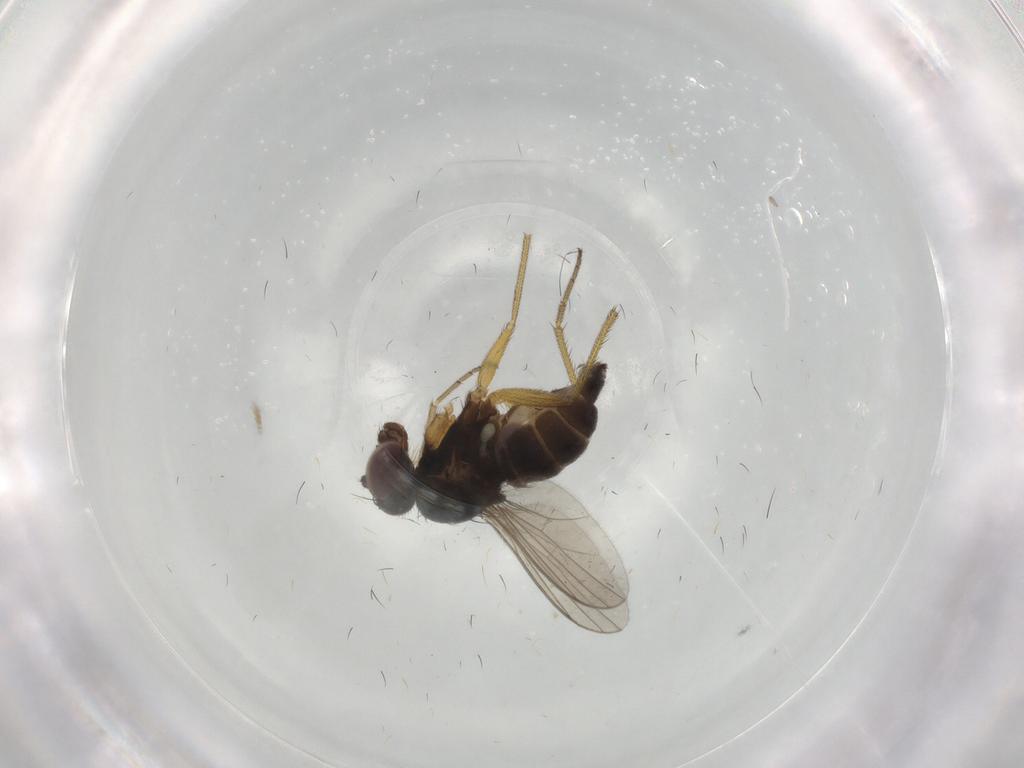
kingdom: Animalia
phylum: Arthropoda
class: Insecta
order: Diptera
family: Dolichopodidae
